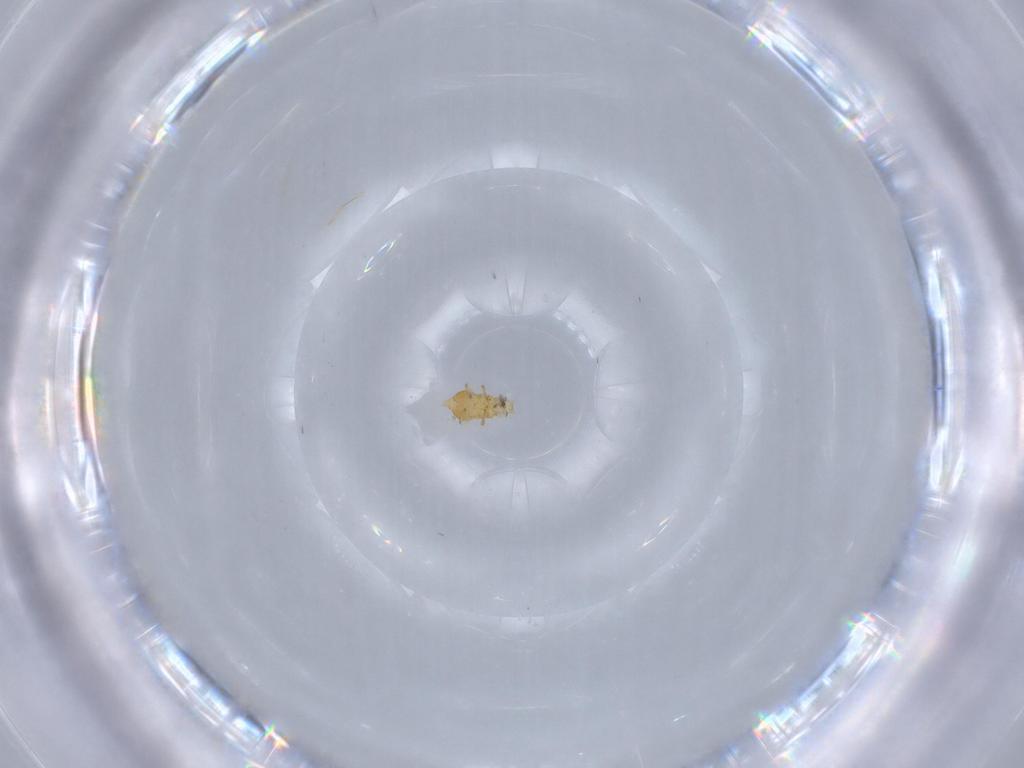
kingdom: Animalia
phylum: Arthropoda
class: Insecta
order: Thysanoptera
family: Thripidae
